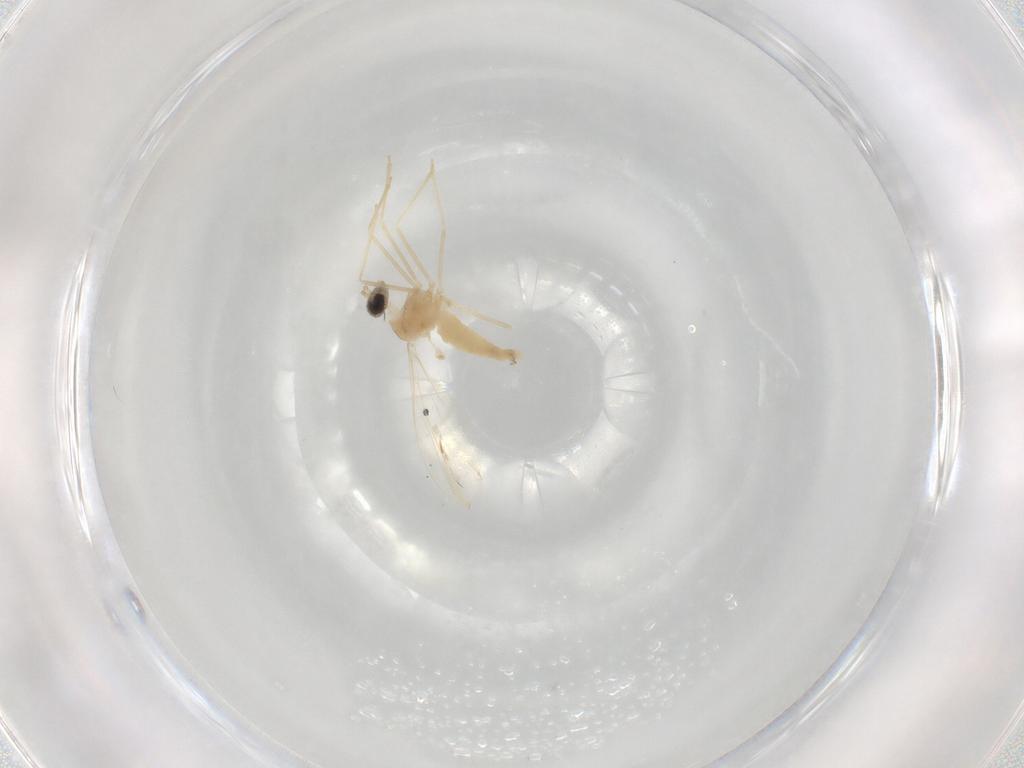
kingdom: Animalia
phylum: Arthropoda
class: Insecta
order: Diptera
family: Cecidomyiidae
